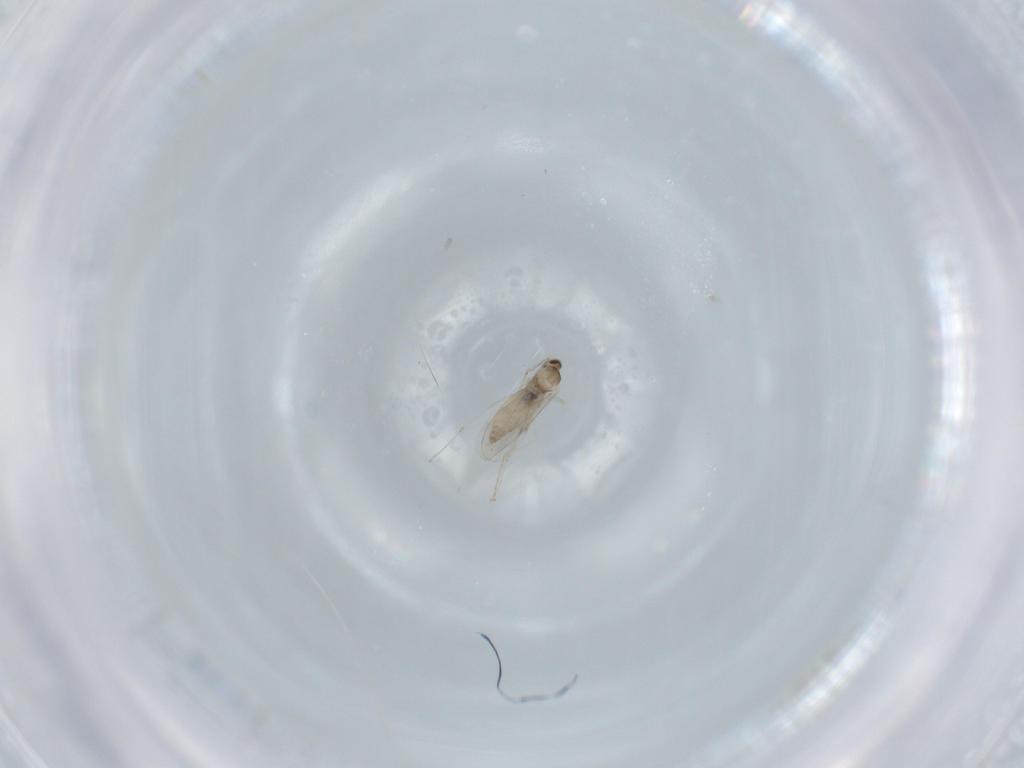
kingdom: Animalia
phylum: Arthropoda
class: Insecta
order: Diptera
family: Cecidomyiidae
